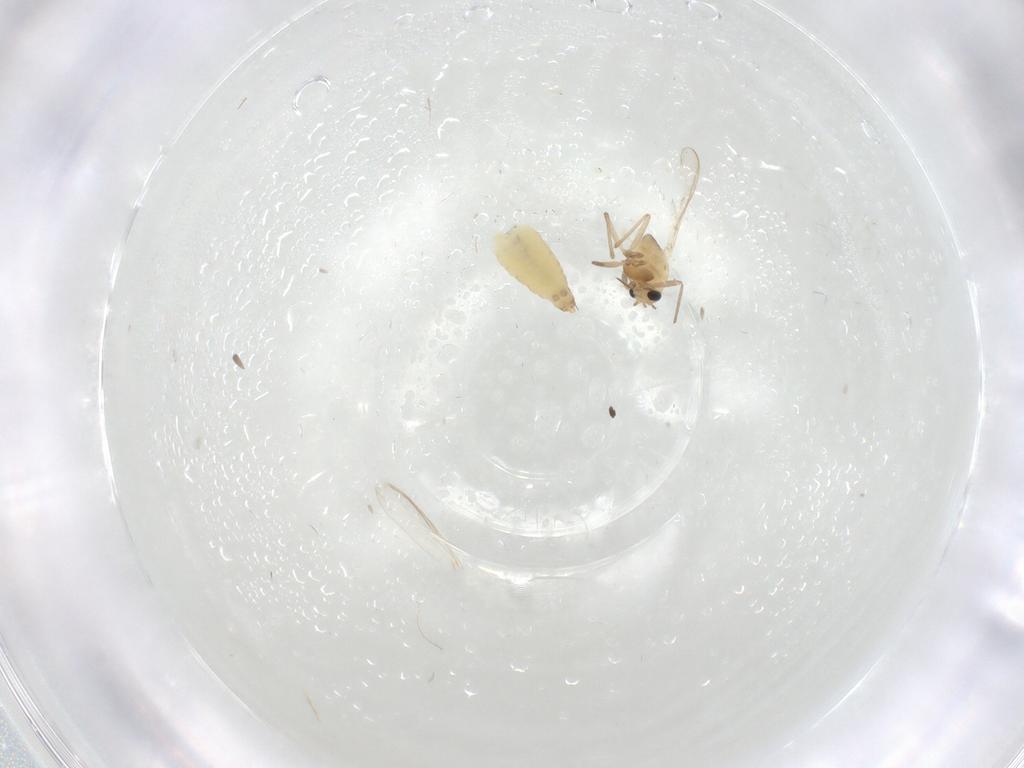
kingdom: Animalia
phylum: Arthropoda
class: Insecta
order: Diptera
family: Chironomidae
